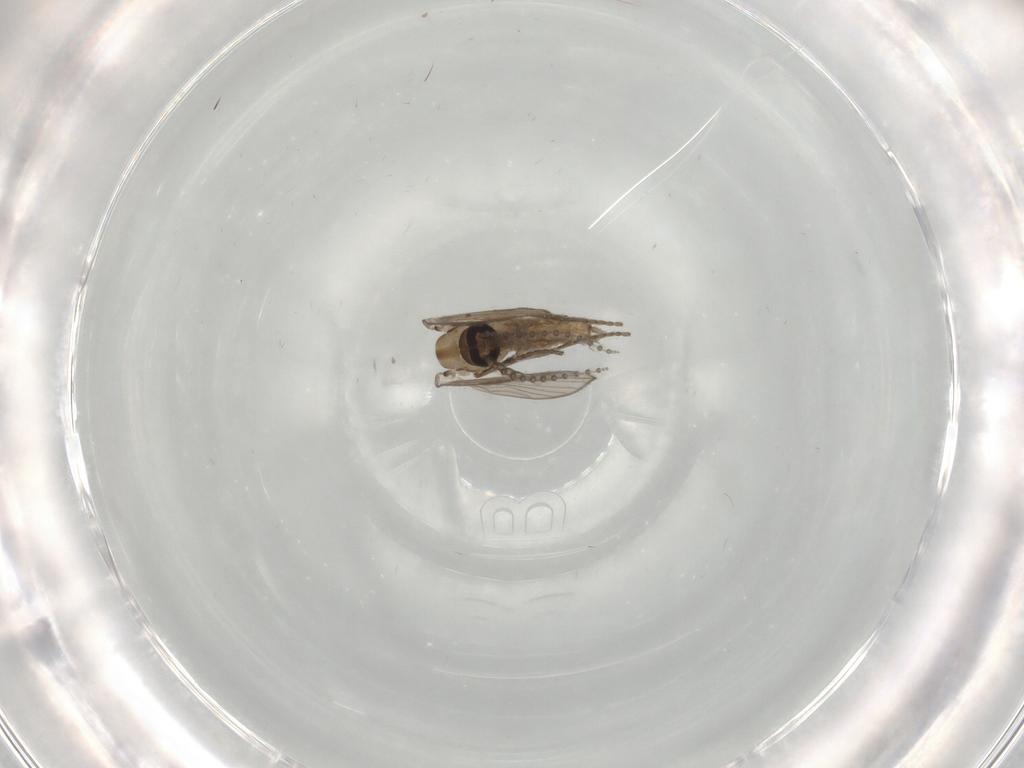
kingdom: Animalia
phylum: Arthropoda
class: Insecta
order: Diptera
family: Psychodidae
